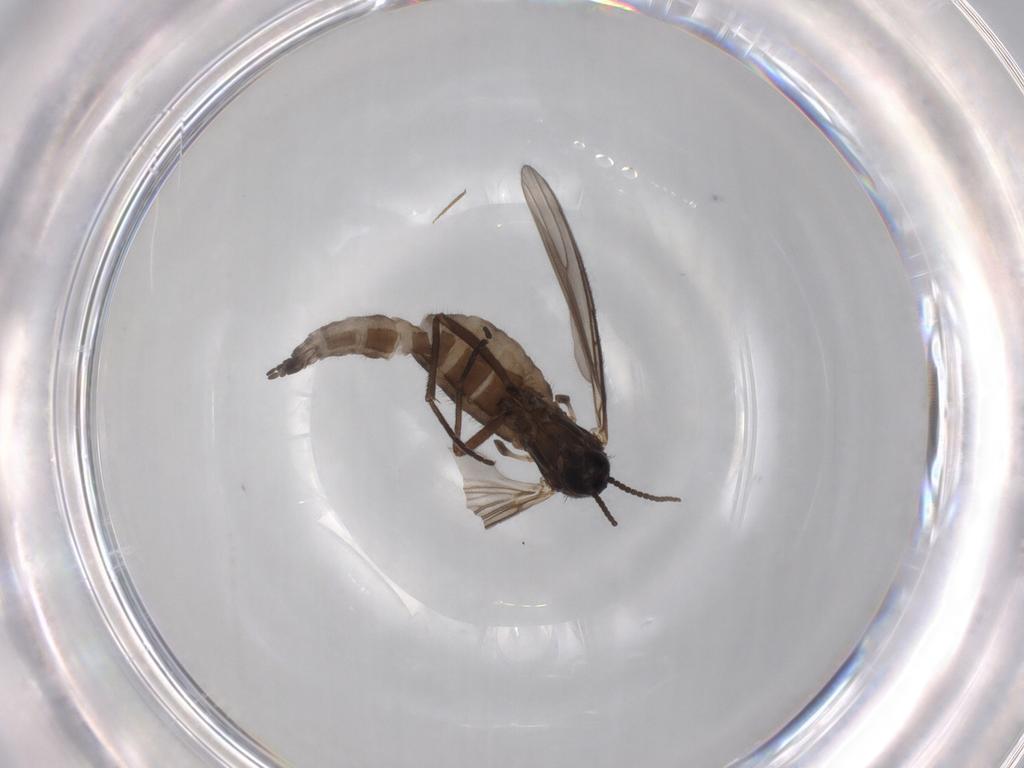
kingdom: Animalia
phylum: Arthropoda
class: Insecta
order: Diptera
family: Sciaridae
